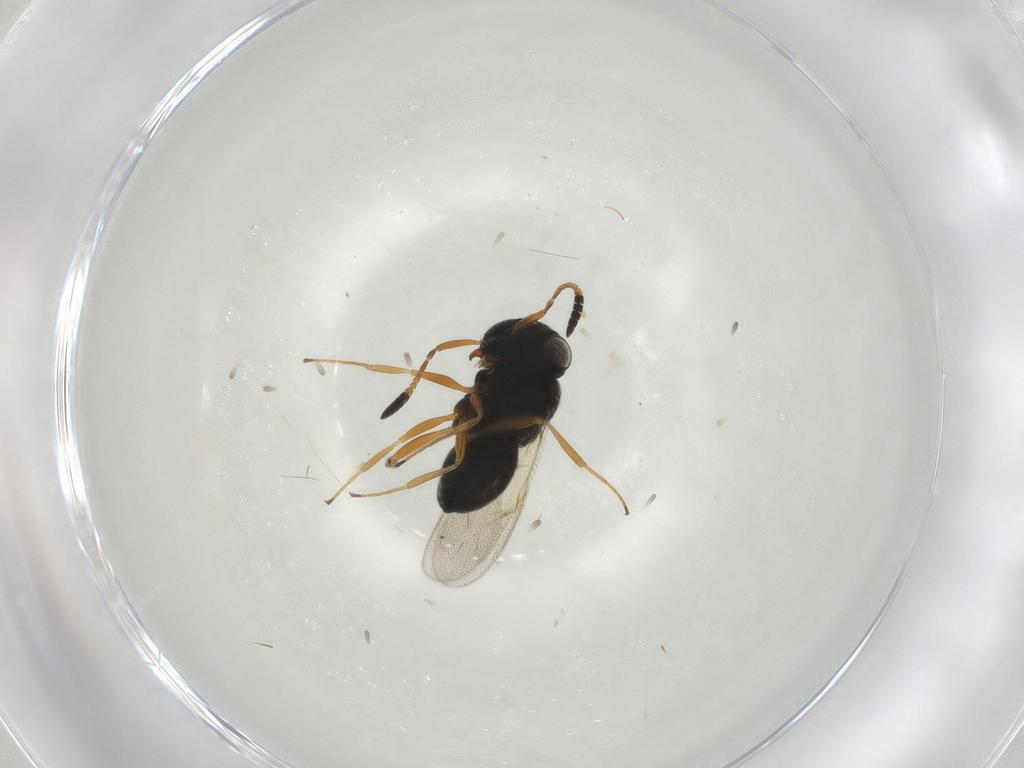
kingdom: Animalia
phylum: Arthropoda
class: Insecta
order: Hymenoptera
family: Scelionidae
